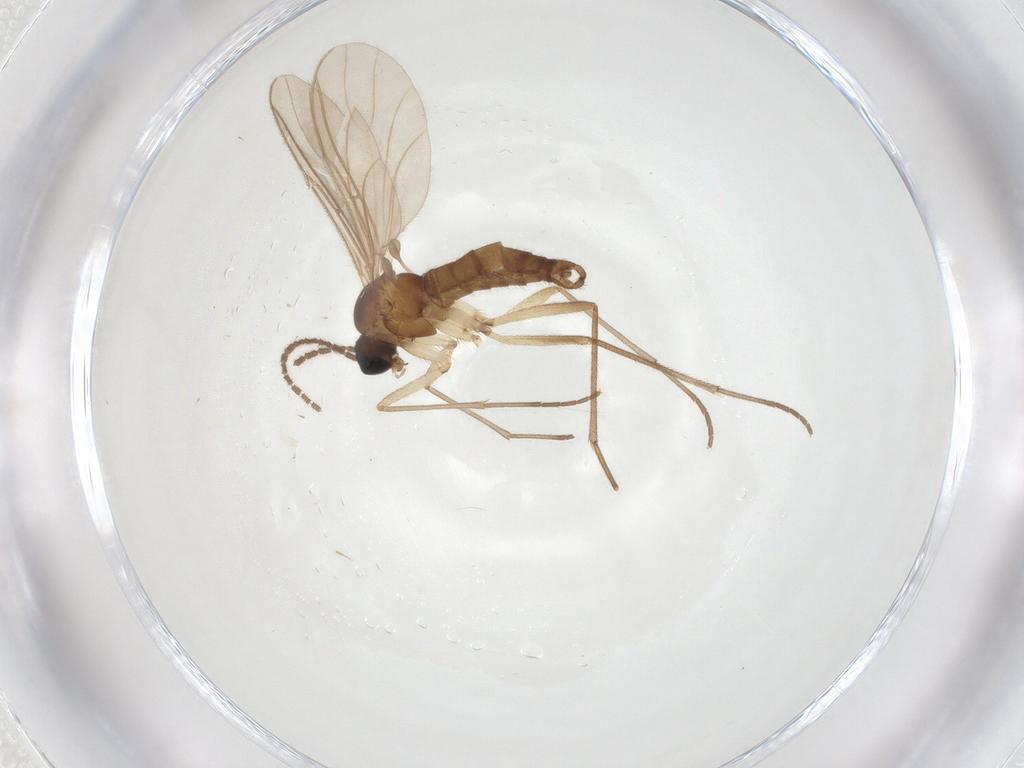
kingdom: Animalia
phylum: Arthropoda
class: Insecta
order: Diptera
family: Sciaridae
